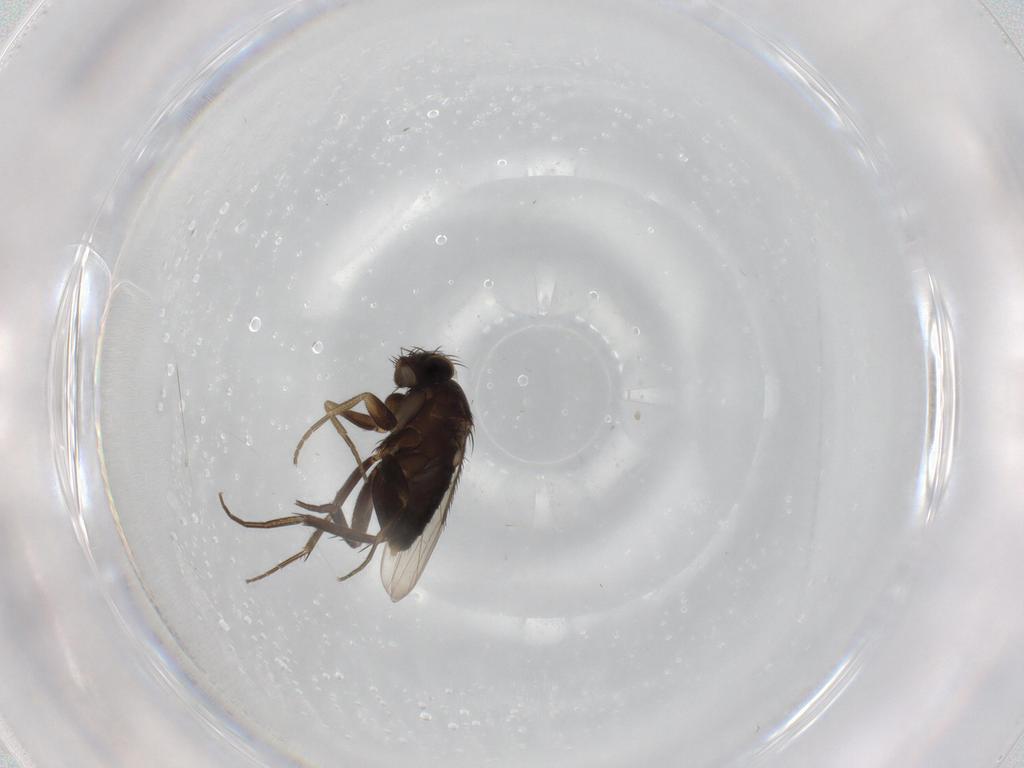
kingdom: Animalia
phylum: Arthropoda
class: Insecta
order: Diptera
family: Phoridae
